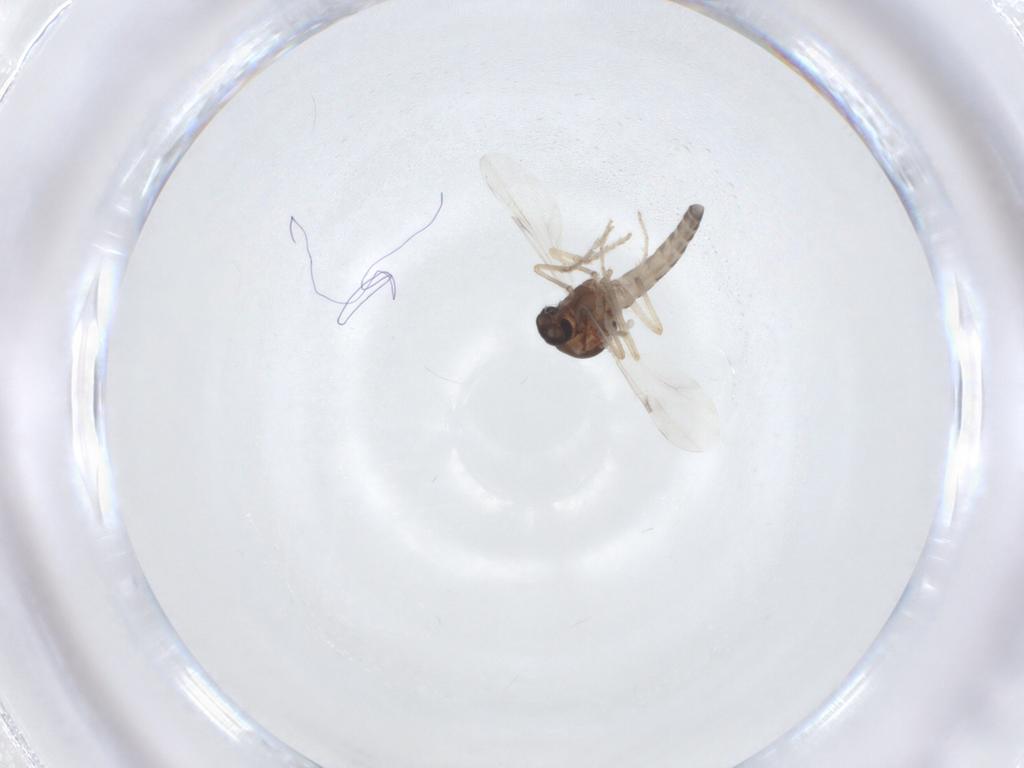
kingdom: Animalia
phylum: Arthropoda
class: Insecta
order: Diptera
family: Ceratopogonidae
